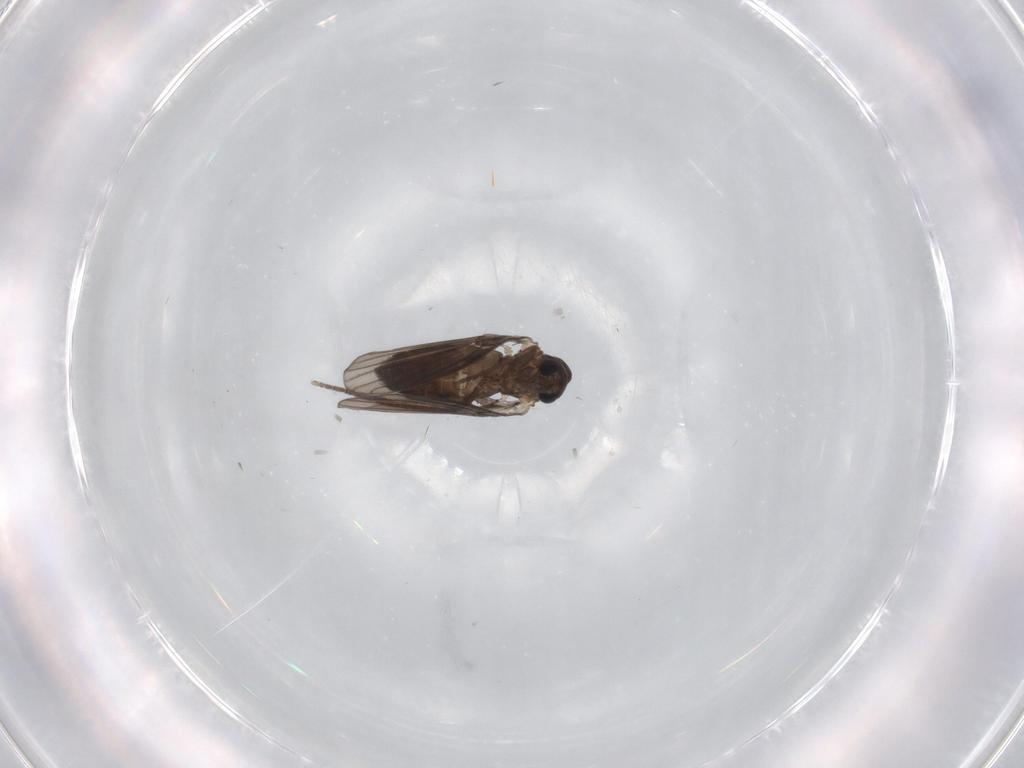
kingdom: Animalia
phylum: Arthropoda
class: Insecta
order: Diptera
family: Psychodidae
